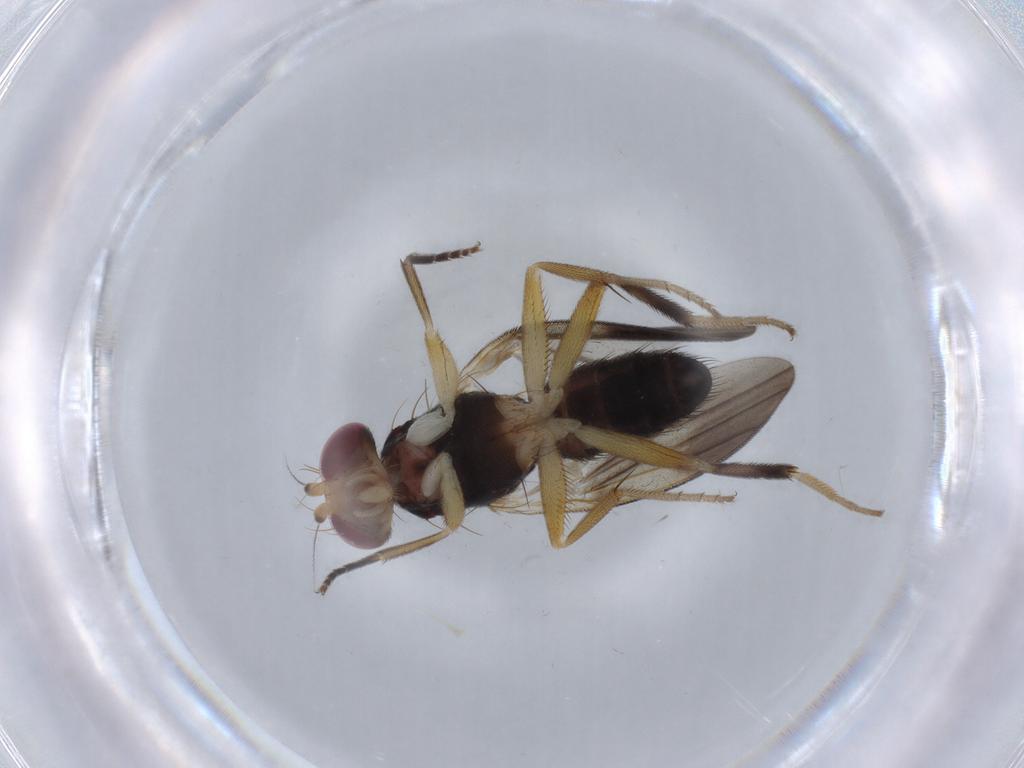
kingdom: Animalia
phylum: Arthropoda
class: Insecta
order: Diptera
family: Clusiidae
